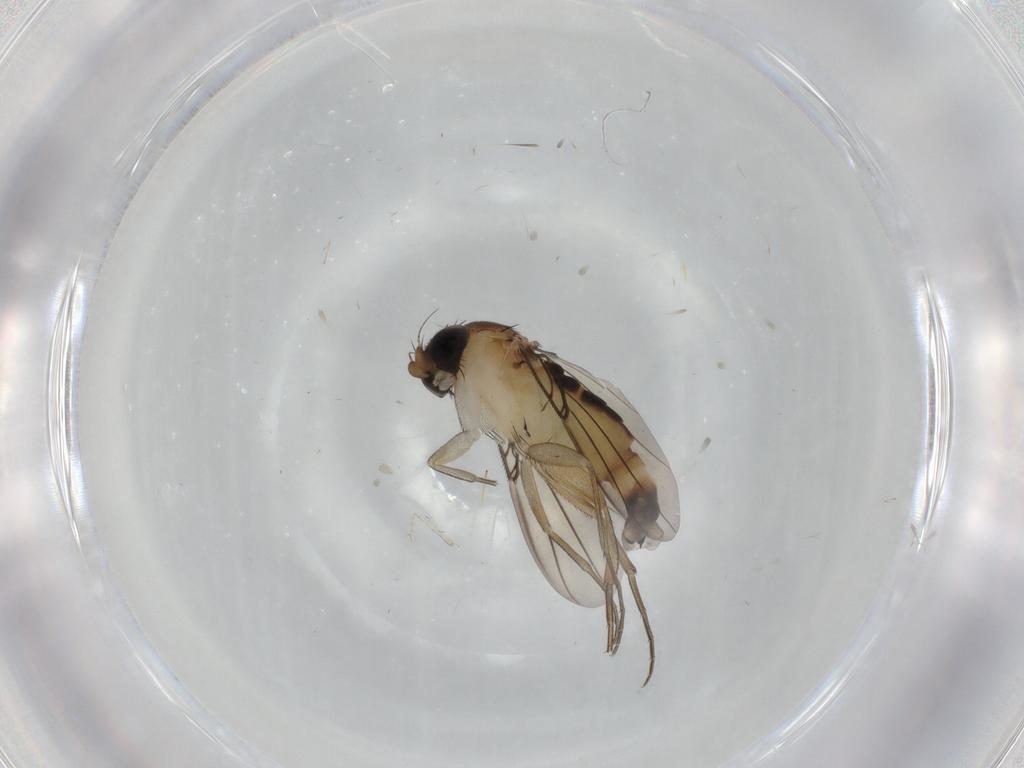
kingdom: Animalia
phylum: Arthropoda
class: Insecta
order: Diptera
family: Phoridae
